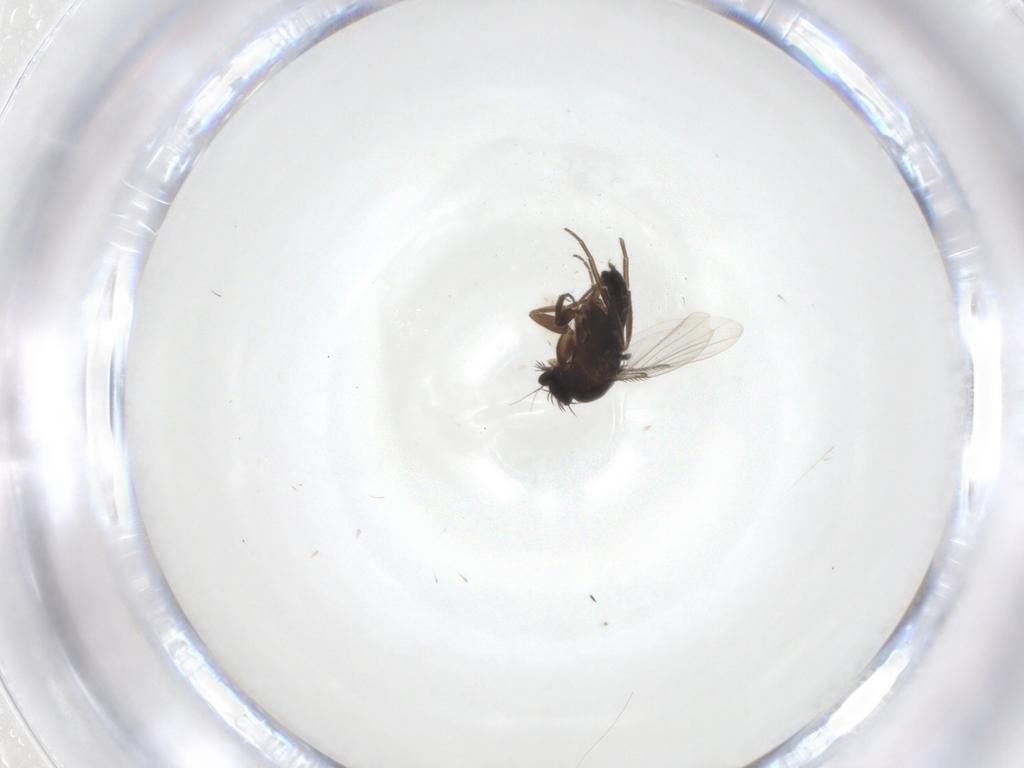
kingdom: Animalia
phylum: Arthropoda
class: Insecta
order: Diptera
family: Phoridae
